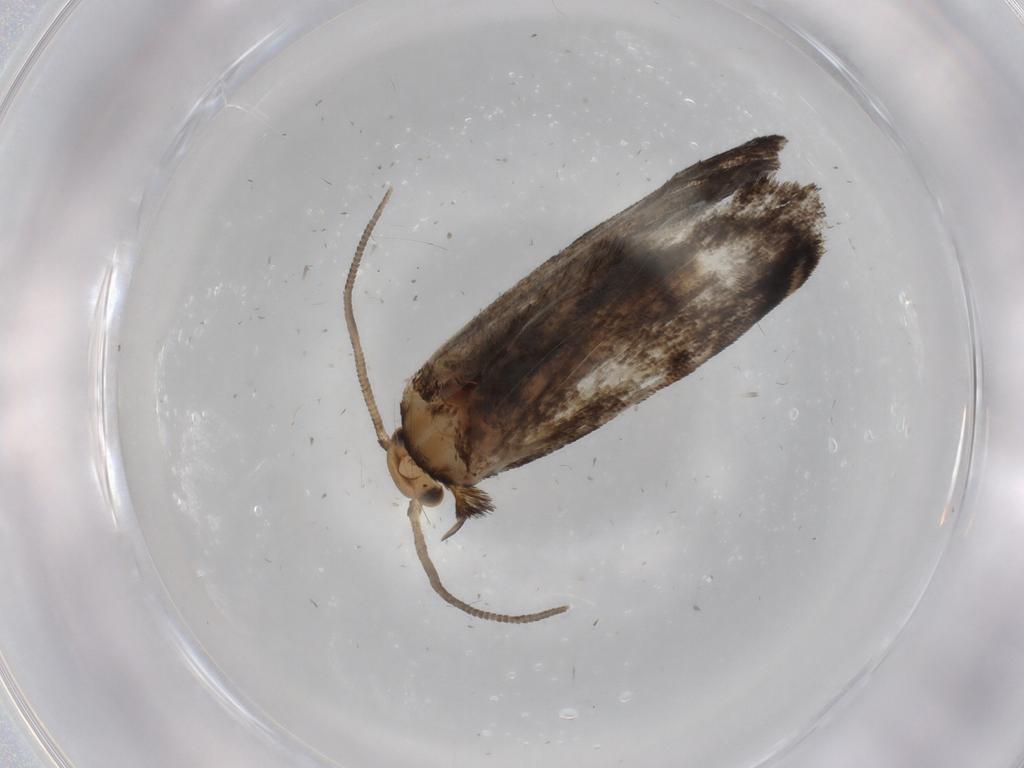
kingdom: Animalia
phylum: Arthropoda
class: Insecta
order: Lepidoptera
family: Dryadaulidae
